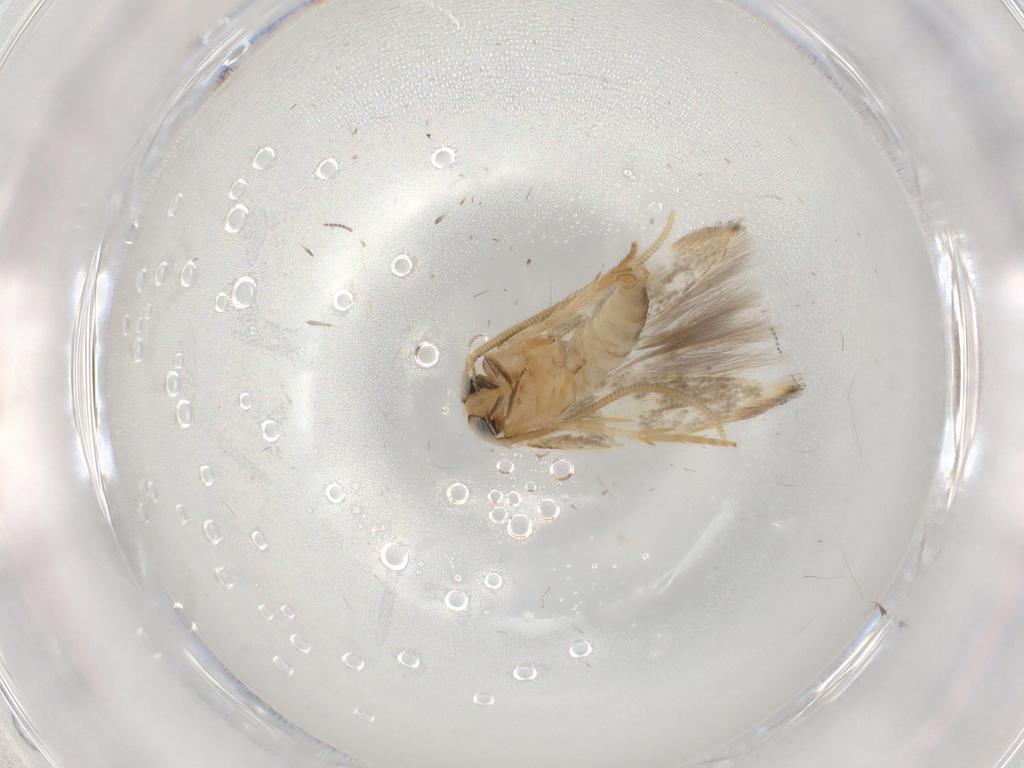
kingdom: Animalia
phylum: Arthropoda
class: Insecta
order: Lepidoptera
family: Opostegidae
